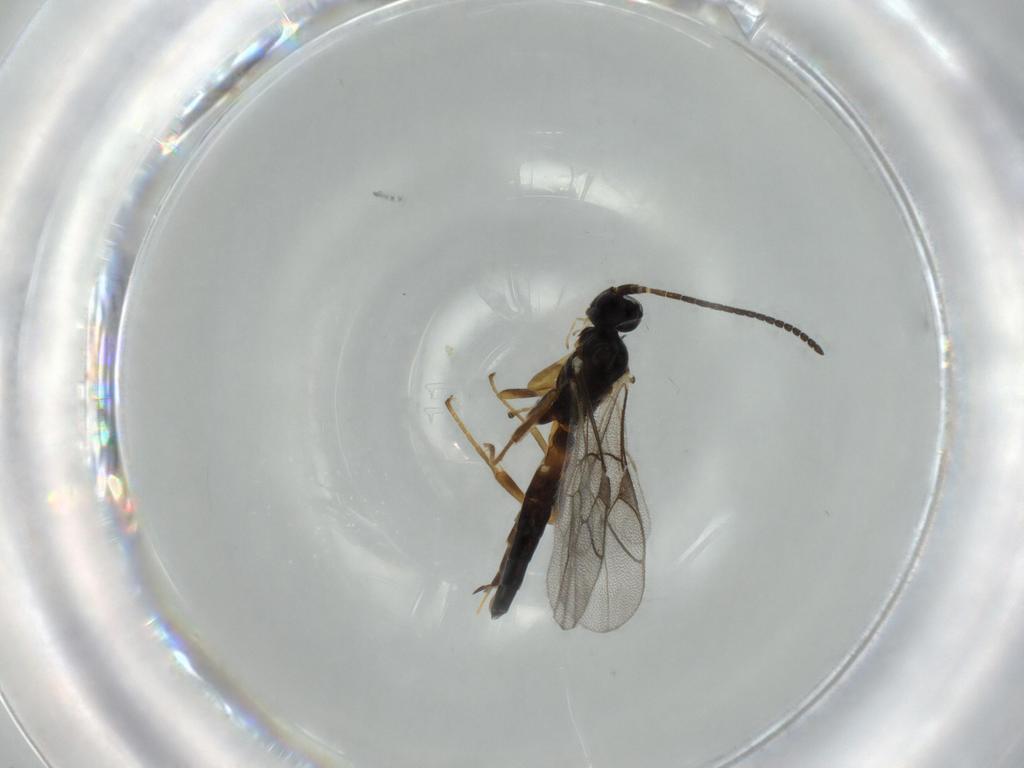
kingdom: Animalia
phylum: Arthropoda
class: Insecta
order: Hymenoptera
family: Ichneumonidae
